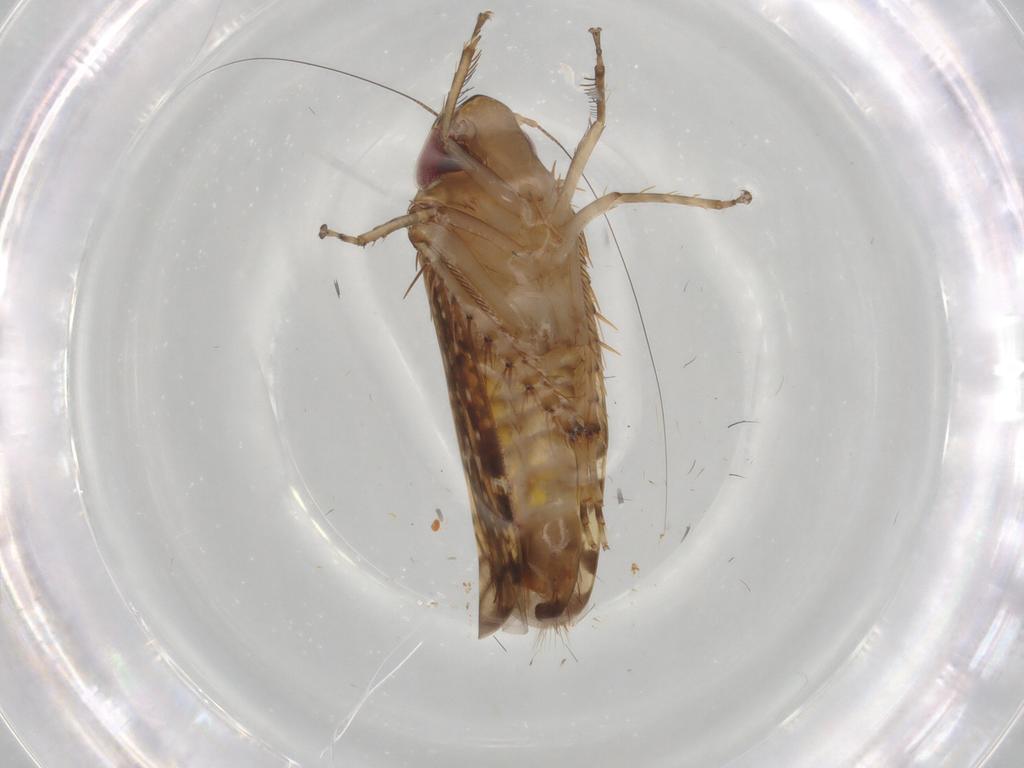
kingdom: Animalia
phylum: Arthropoda
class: Insecta
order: Hemiptera
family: Cicadellidae
